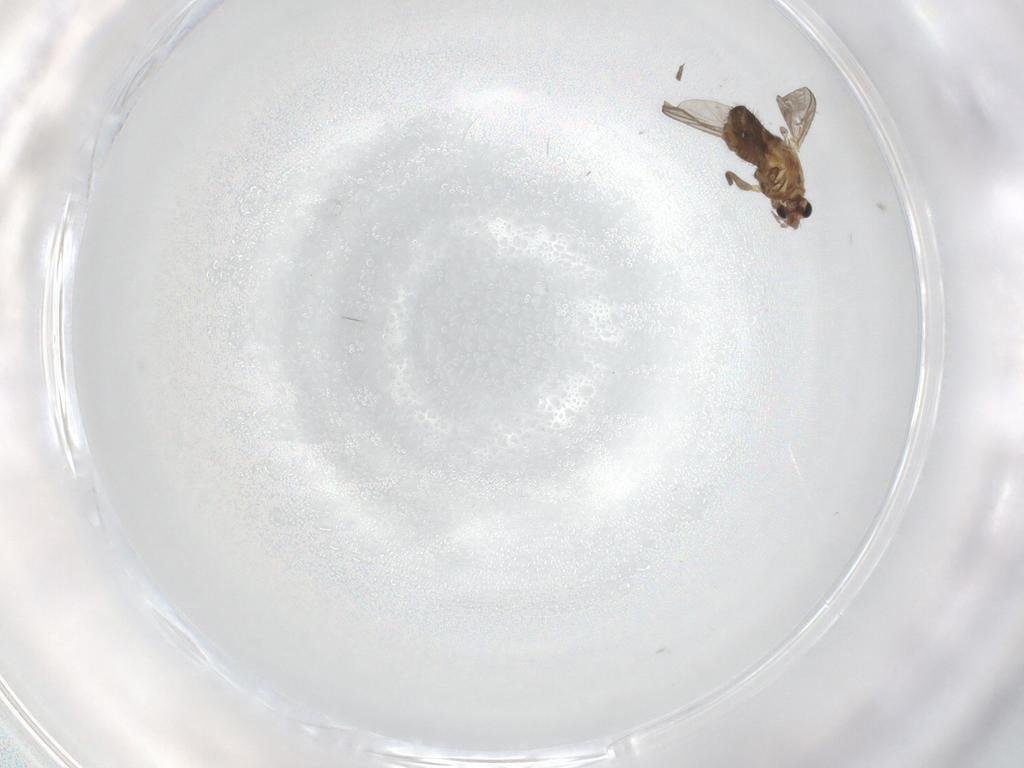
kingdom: Animalia
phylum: Arthropoda
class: Insecta
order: Diptera
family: Chironomidae
